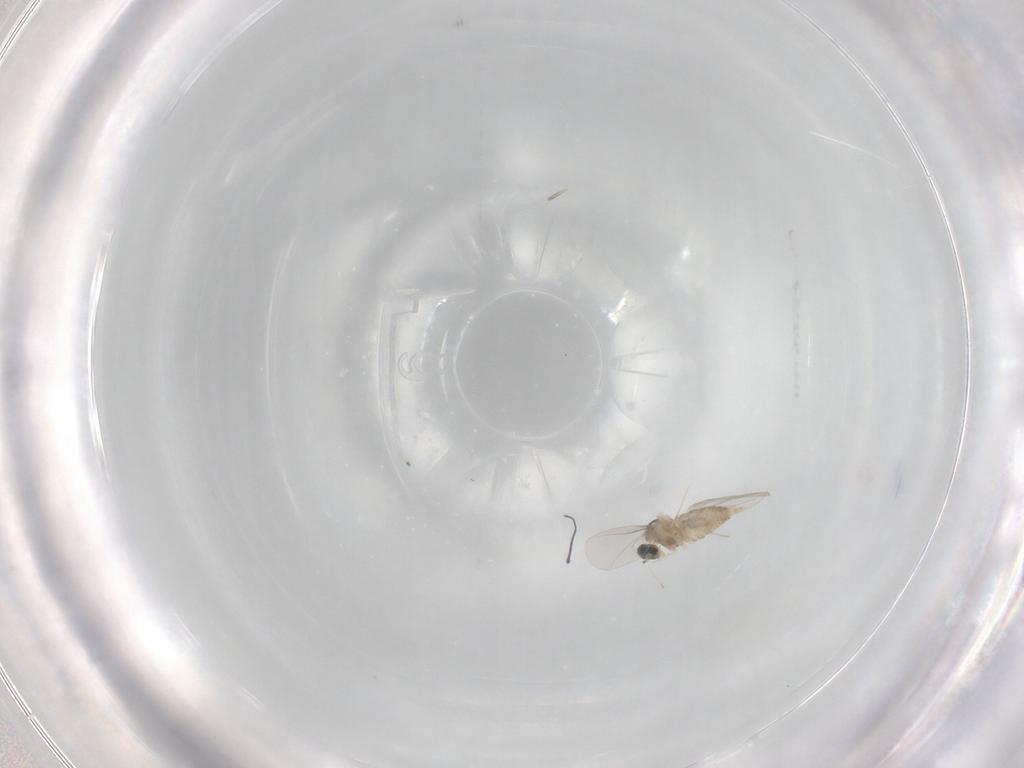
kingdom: Animalia
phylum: Arthropoda
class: Insecta
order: Diptera
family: Cecidomyiidae
